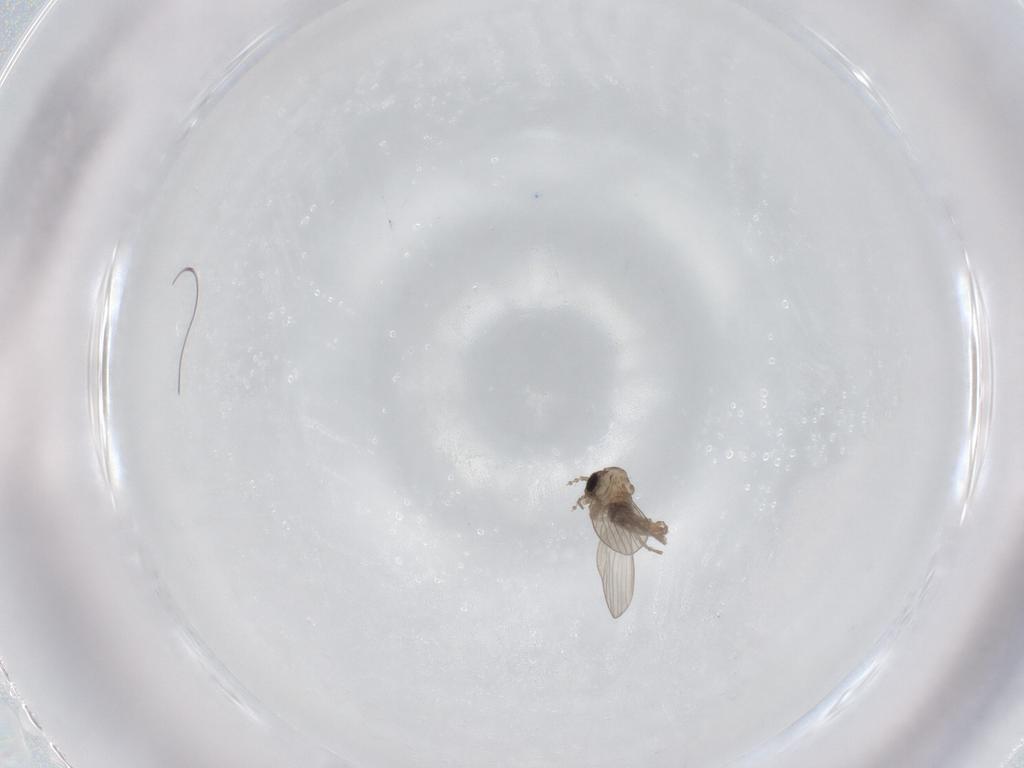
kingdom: Animalia
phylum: Arthropoda
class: Insecta
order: Diptera
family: Psychodidae
